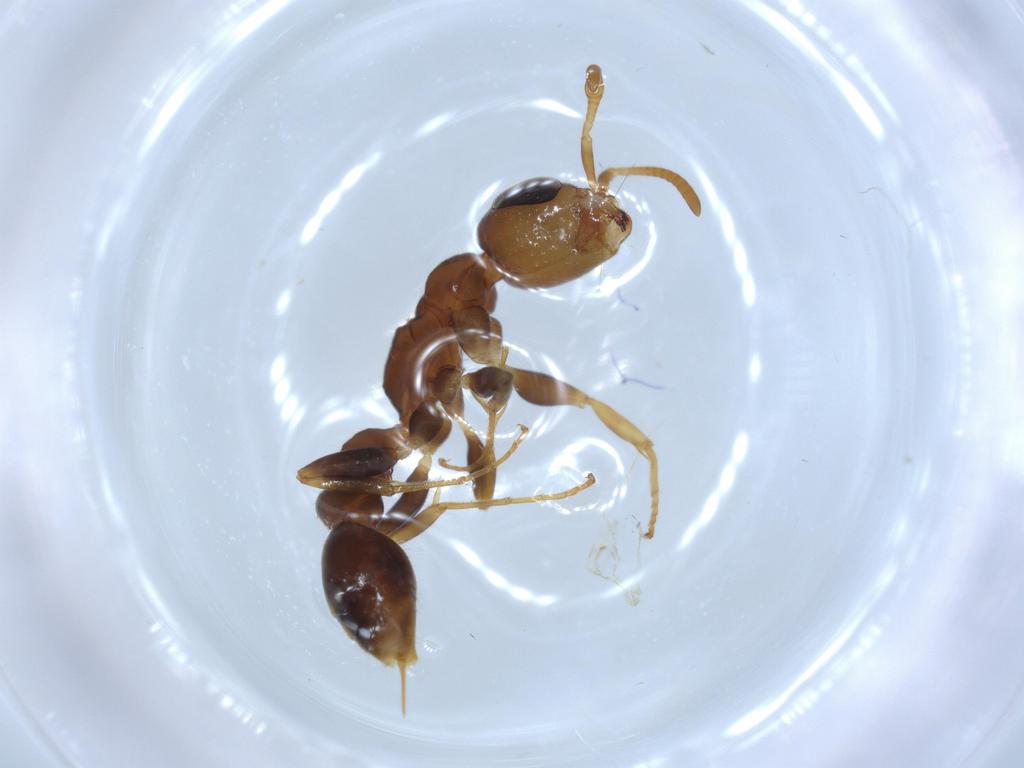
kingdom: Animalia
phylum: Arthropoda
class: Insecta
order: Hymenoptera
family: Formicidae
